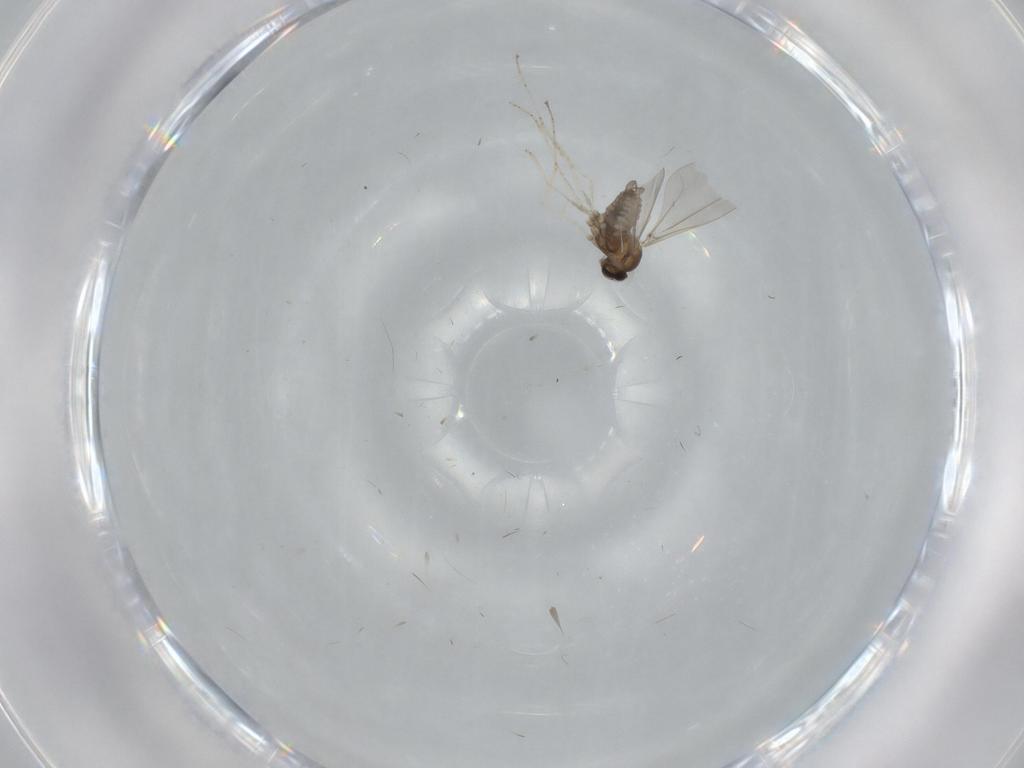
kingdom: Animalia
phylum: Arthropoda
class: Insecta
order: Diptera
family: Cecidomyiidae
